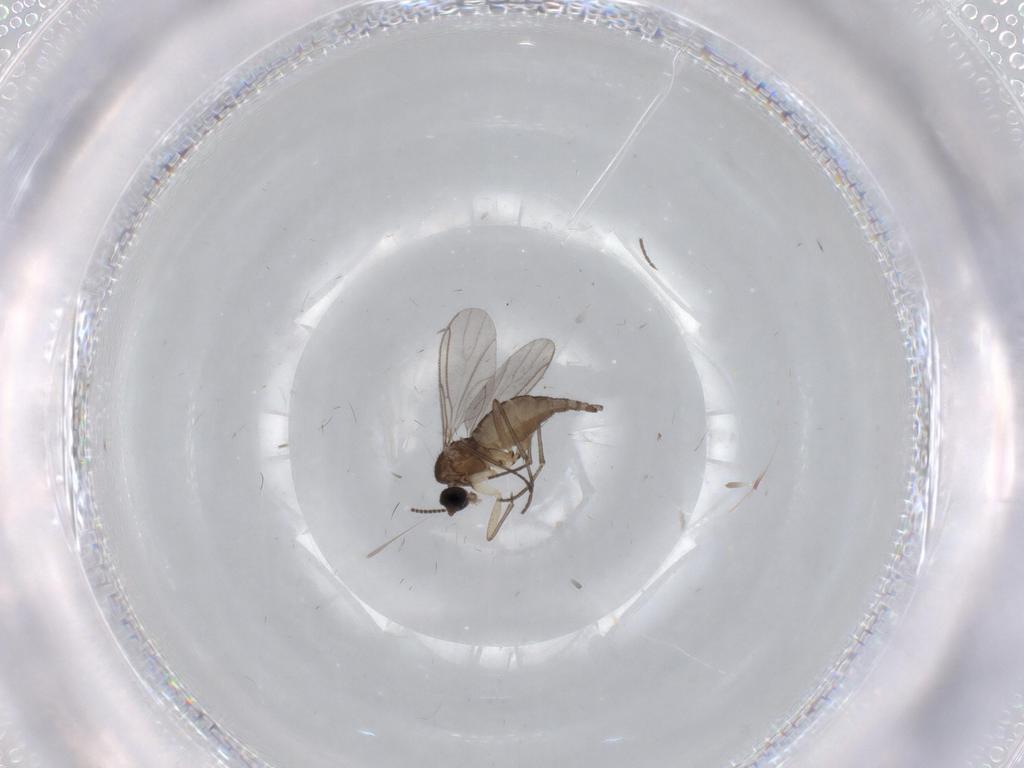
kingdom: Animalia
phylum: Arthropoda
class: Insecta
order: Diptera
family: Sciaridae
